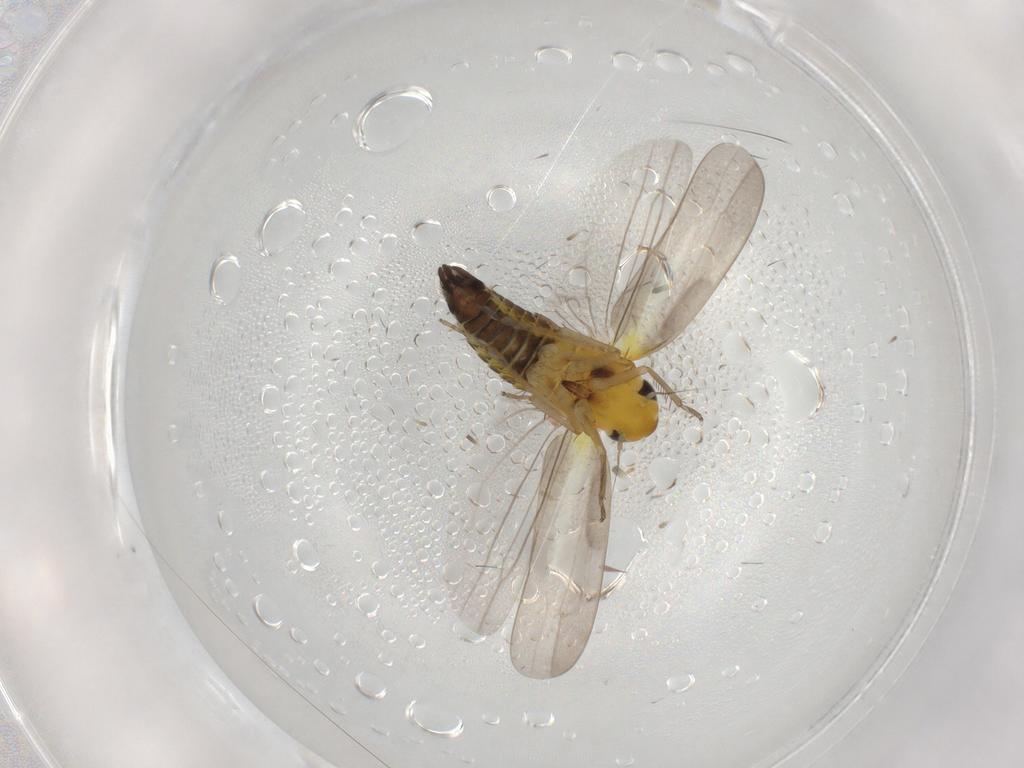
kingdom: Animalia
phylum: Arthropoda
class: Insecta
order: Hemiptera
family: Cicadellidae
